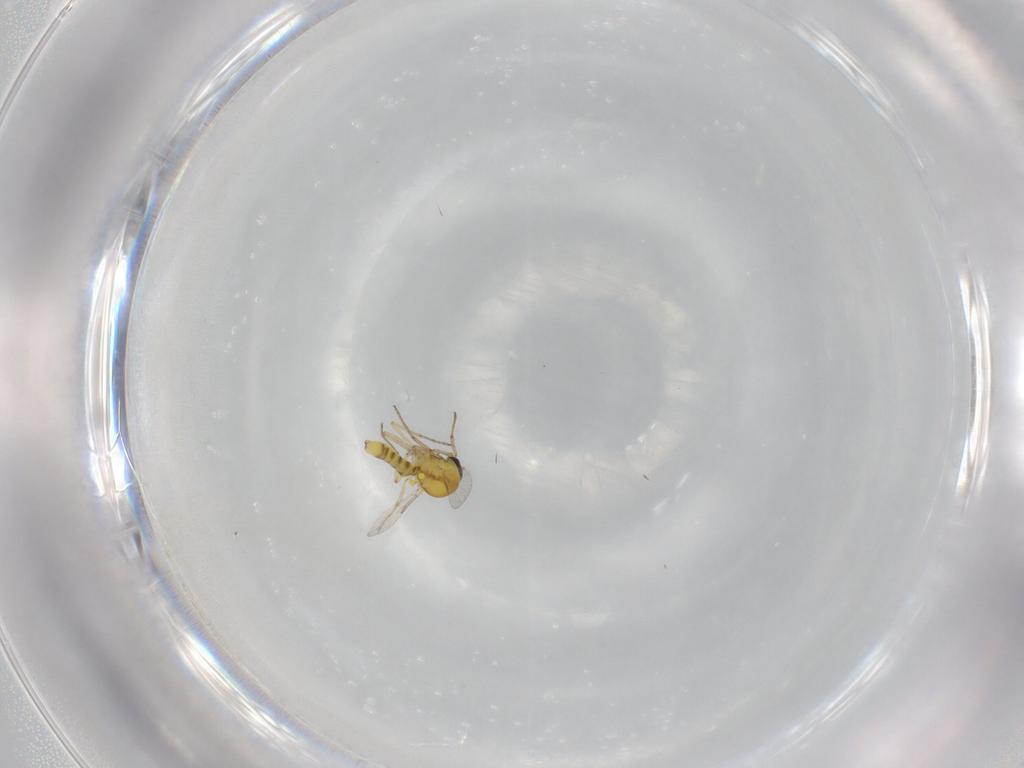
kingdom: Animalia
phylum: Arthropoda
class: Insecta
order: Diptera
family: Ceratopogonidae
